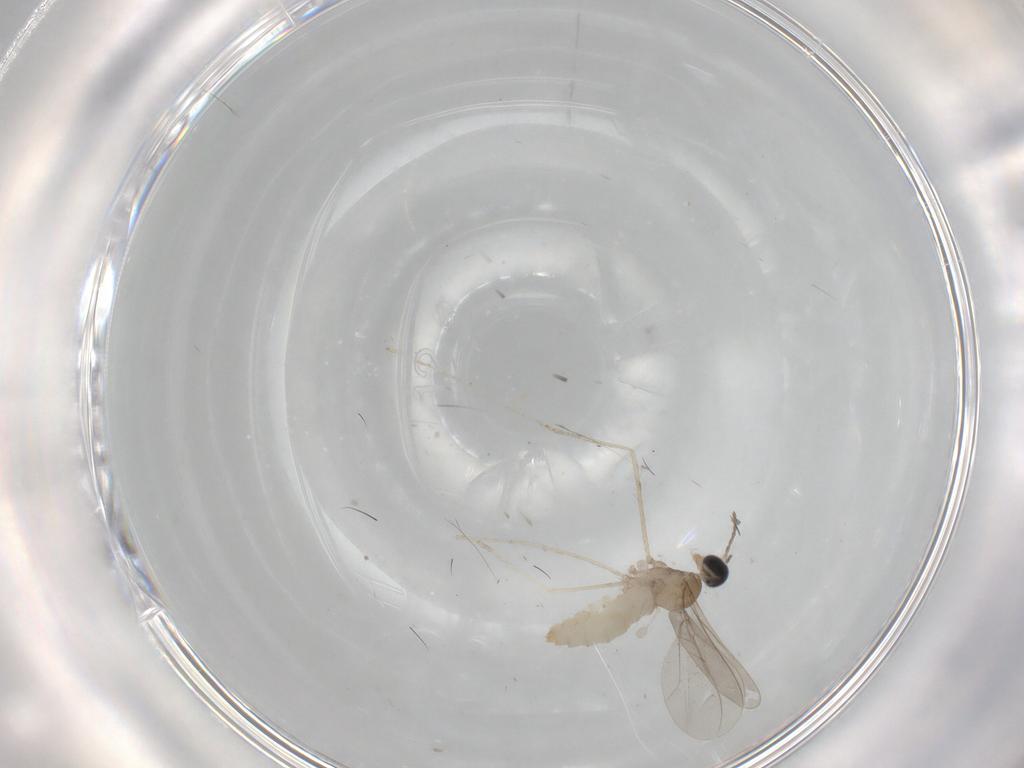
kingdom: Animalia
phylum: Arthropoda
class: Insecta
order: Diptera
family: Cecidomyiidae
